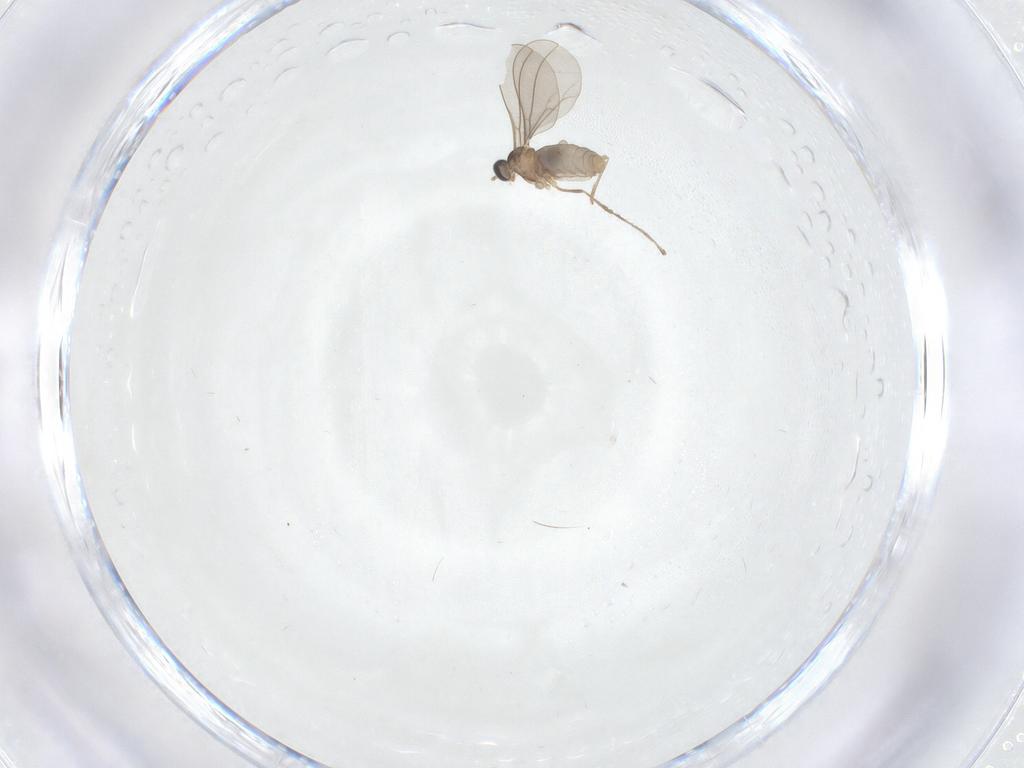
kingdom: Animalia
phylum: Arthropoda
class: Insecta
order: Diptera
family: Cecidomyiidae
